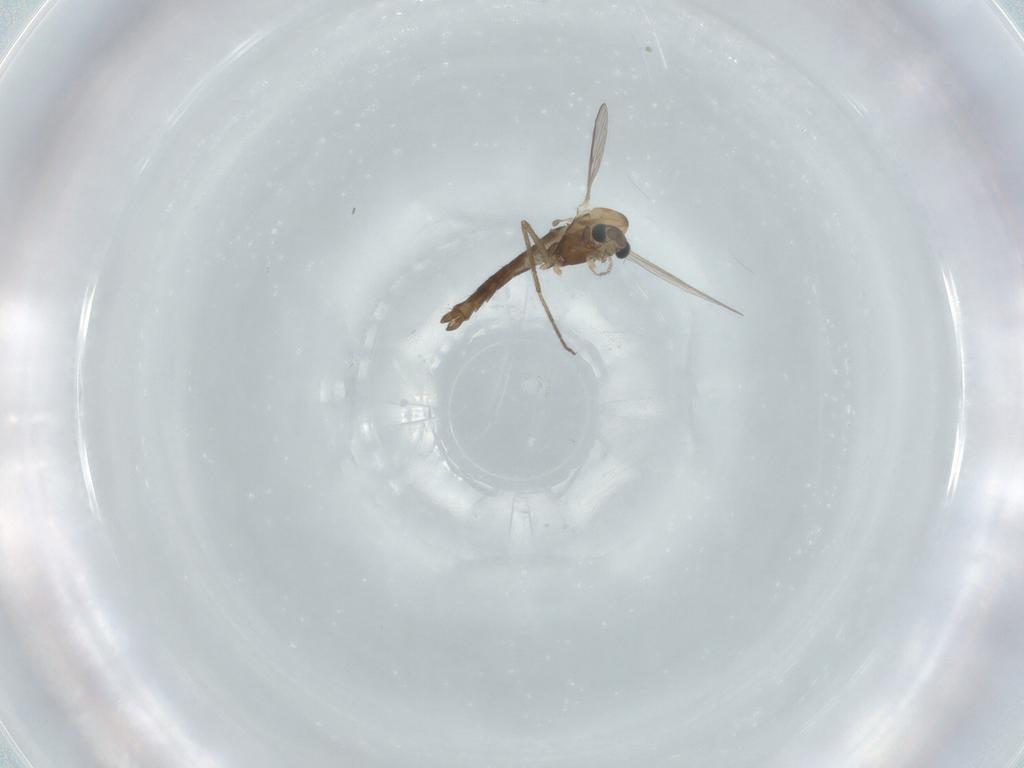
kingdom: Animalia
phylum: Arthropoda
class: Insecta
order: Diptera
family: Chironomidae
